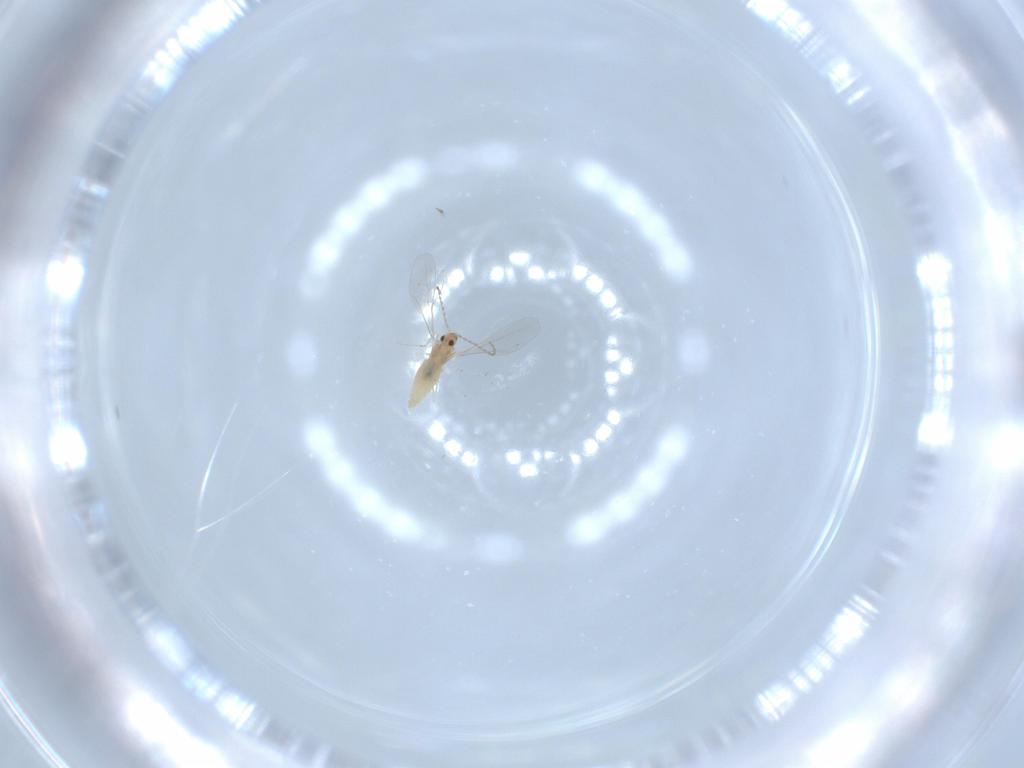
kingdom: Animalia
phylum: Arthropoda
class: Insecta
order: Diptera
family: Cecidomyiidae
